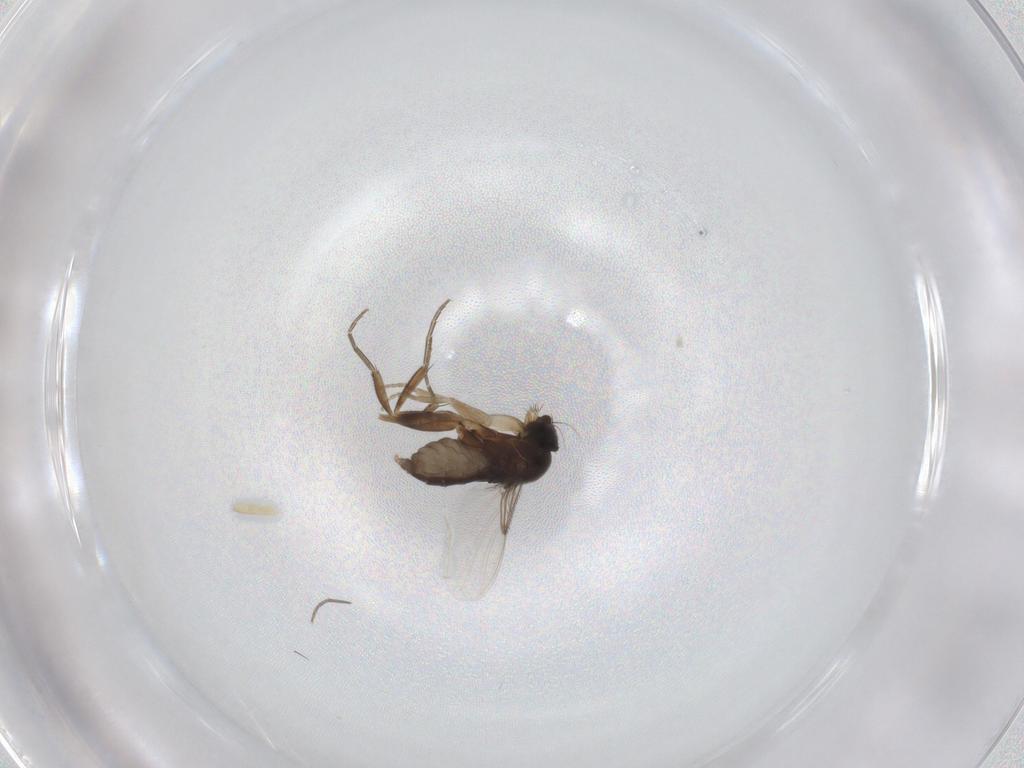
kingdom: Animalia
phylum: Arthropoda
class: Insecta
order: Diptera
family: Phoridae
